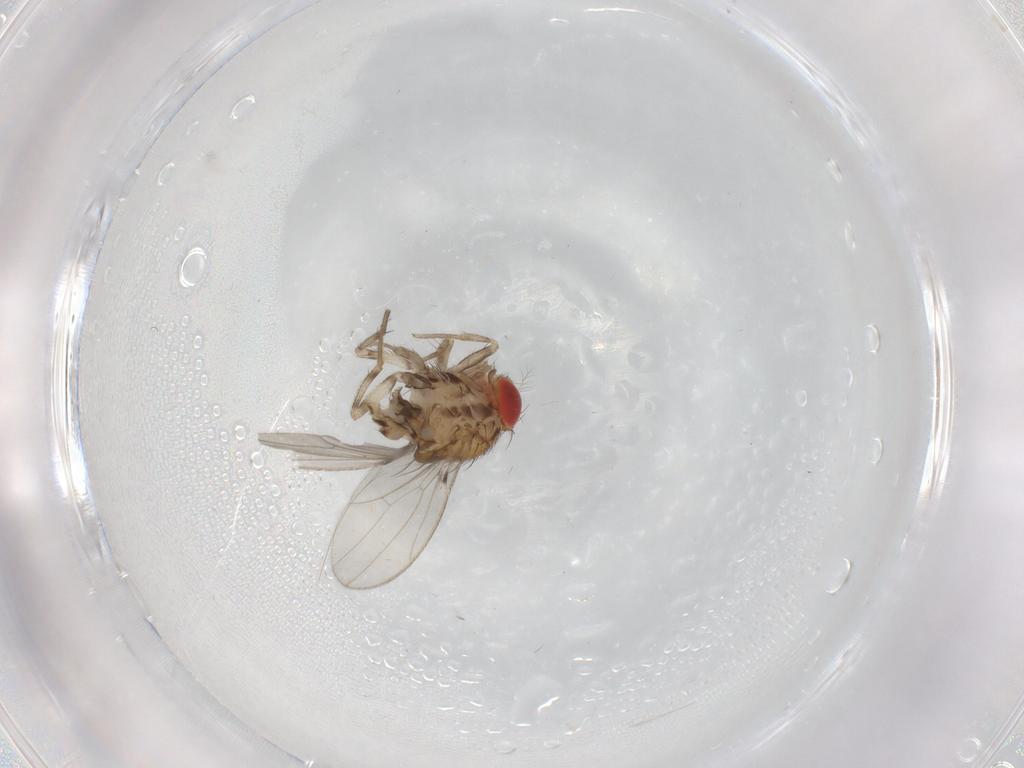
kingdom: Animalia
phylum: Arthropoda
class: Insecta
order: Diptera
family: Drosophilidae
